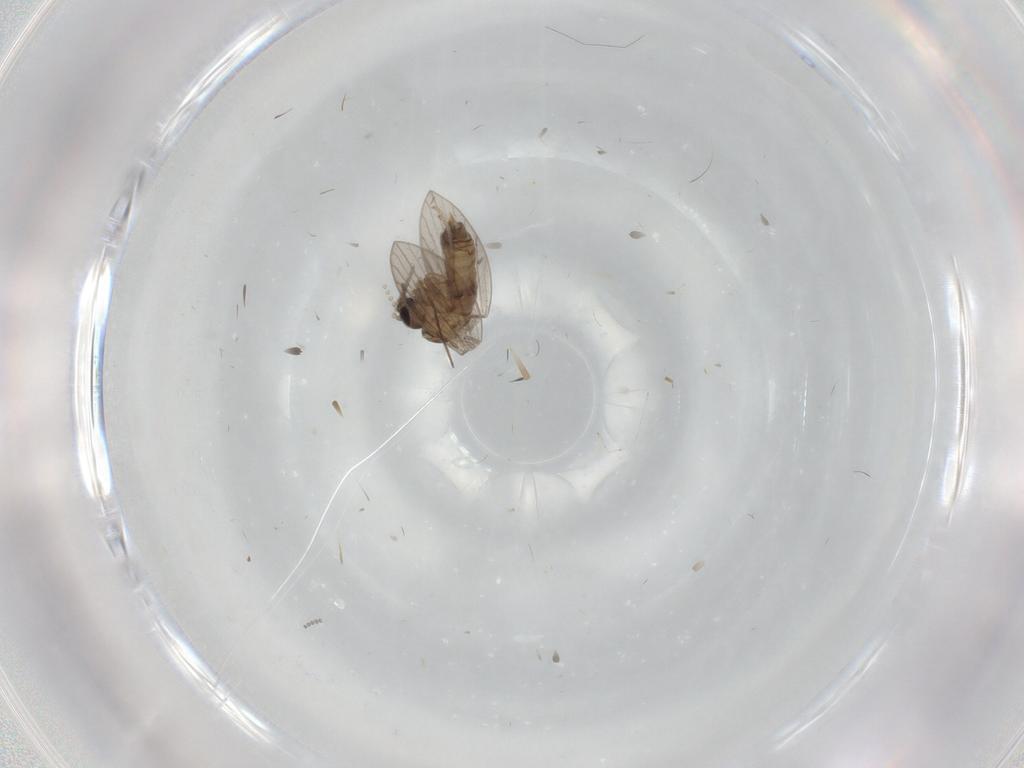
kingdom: Animalia
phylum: Arthropoda
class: Insecta
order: Diptera
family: Psychodidae
